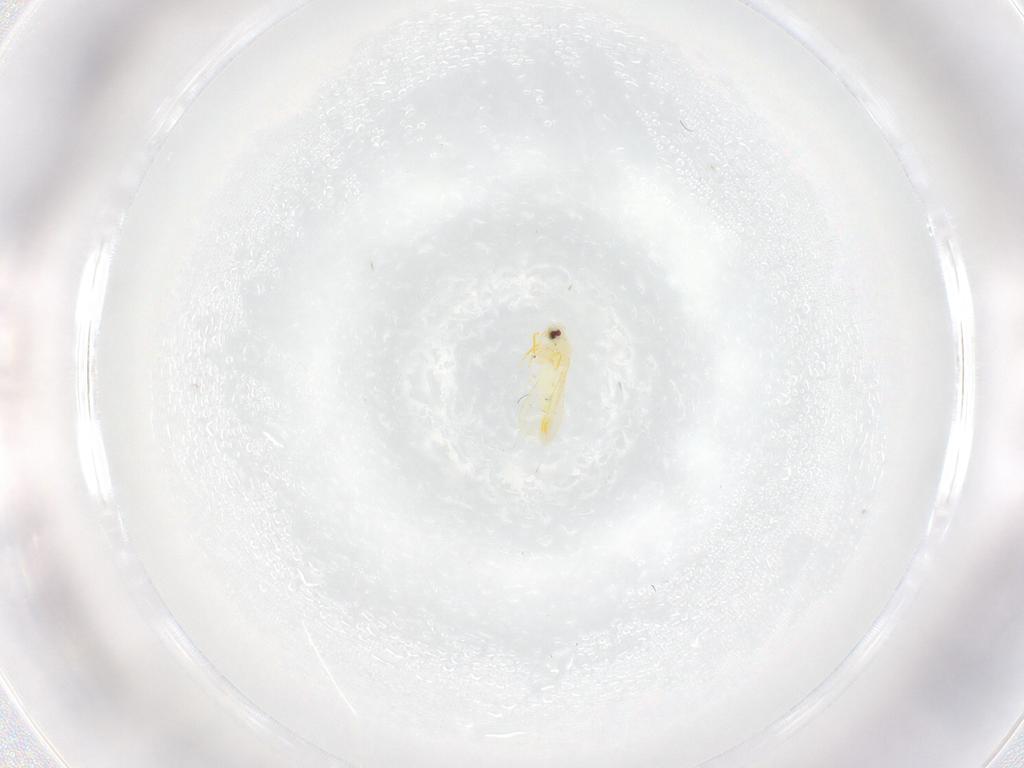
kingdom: Animalia
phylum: Arthropoda
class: Insecta
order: Hemiptera
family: Aleyrodidae
